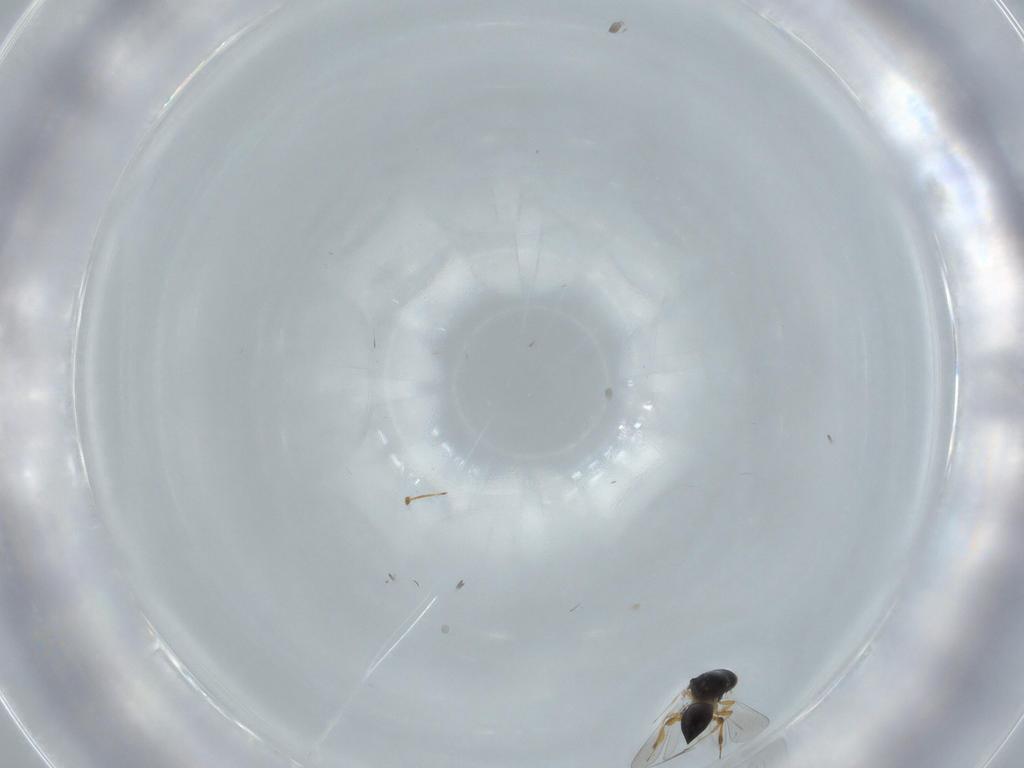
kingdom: Animalia
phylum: Arthropoda
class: Insecta
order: Hymenoptera
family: Platygastridae
